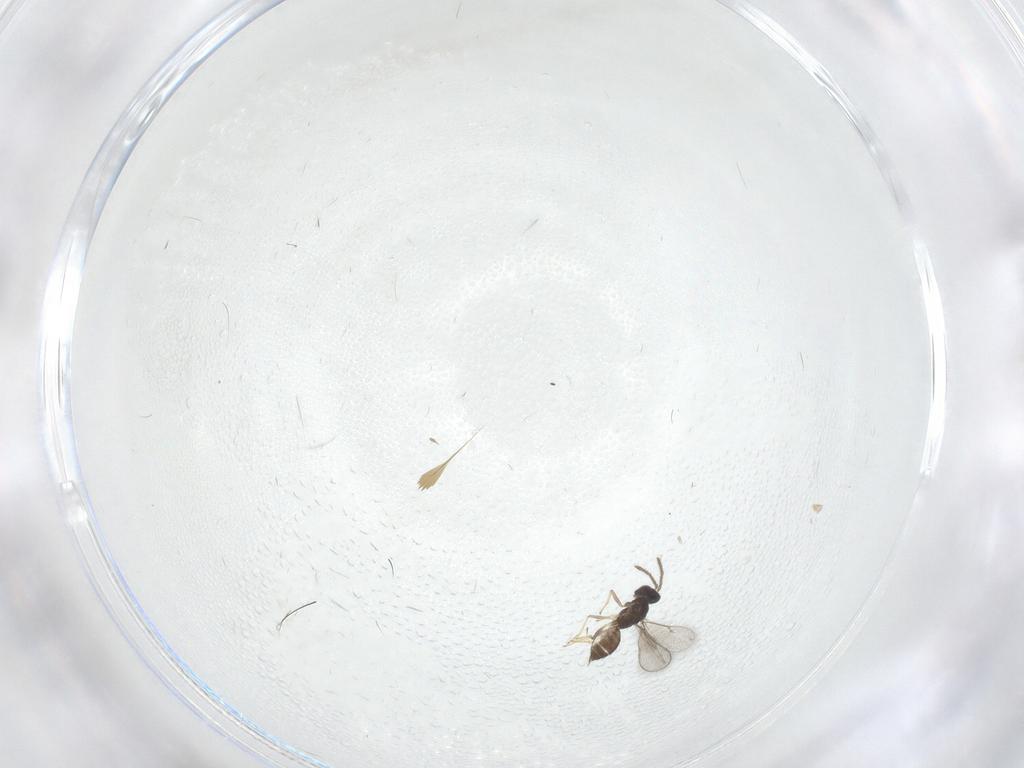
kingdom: Animalia
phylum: Arthropoda
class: Insecta
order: Hymenoptera
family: Eulophidae
